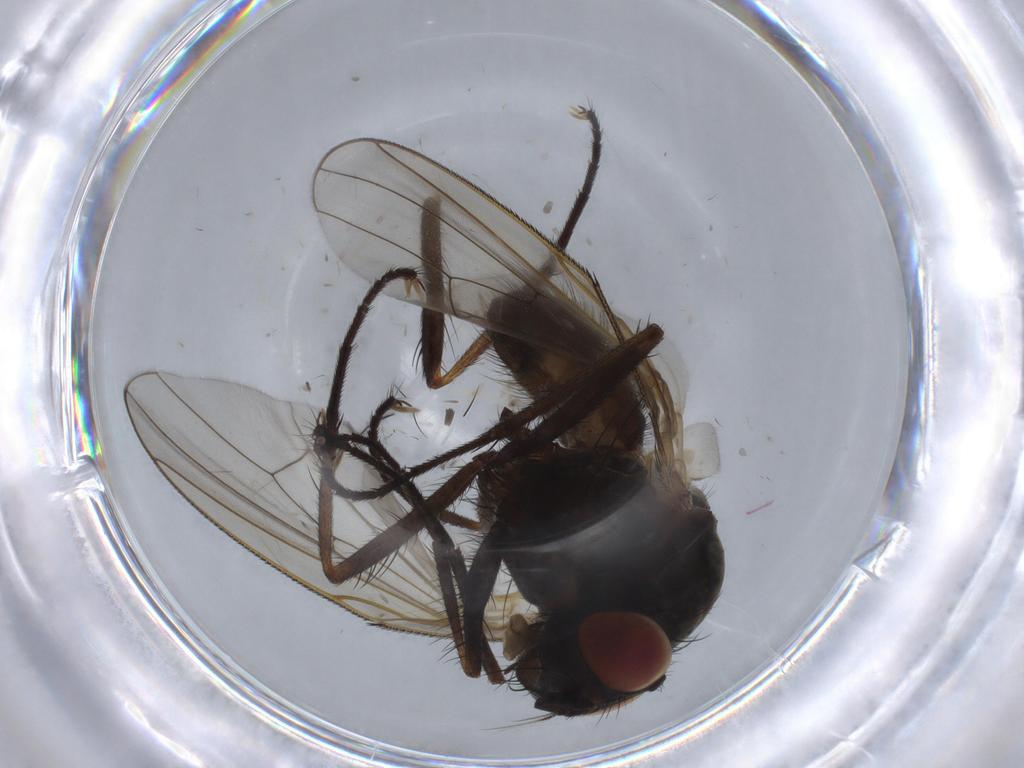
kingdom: Animalia
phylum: Arthropoda
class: Insecta
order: Diptera
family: Anthomyiidae
